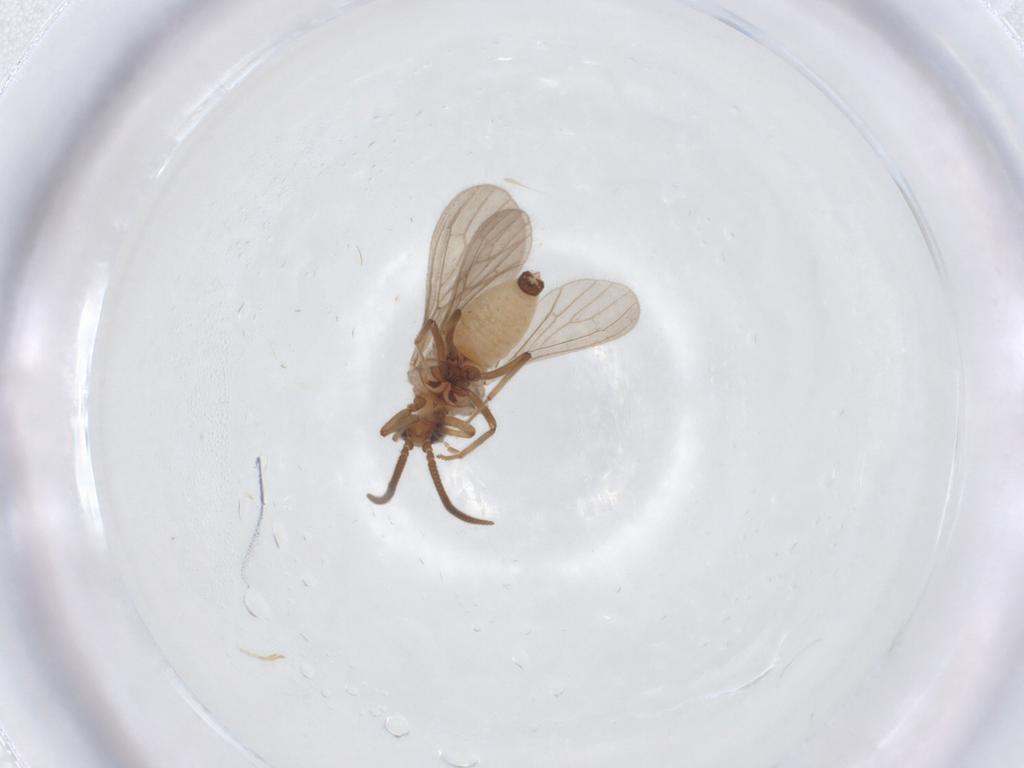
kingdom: Animalia
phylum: Arthropoda
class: Insecta
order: Neuroptera
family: Coniopterygidae
